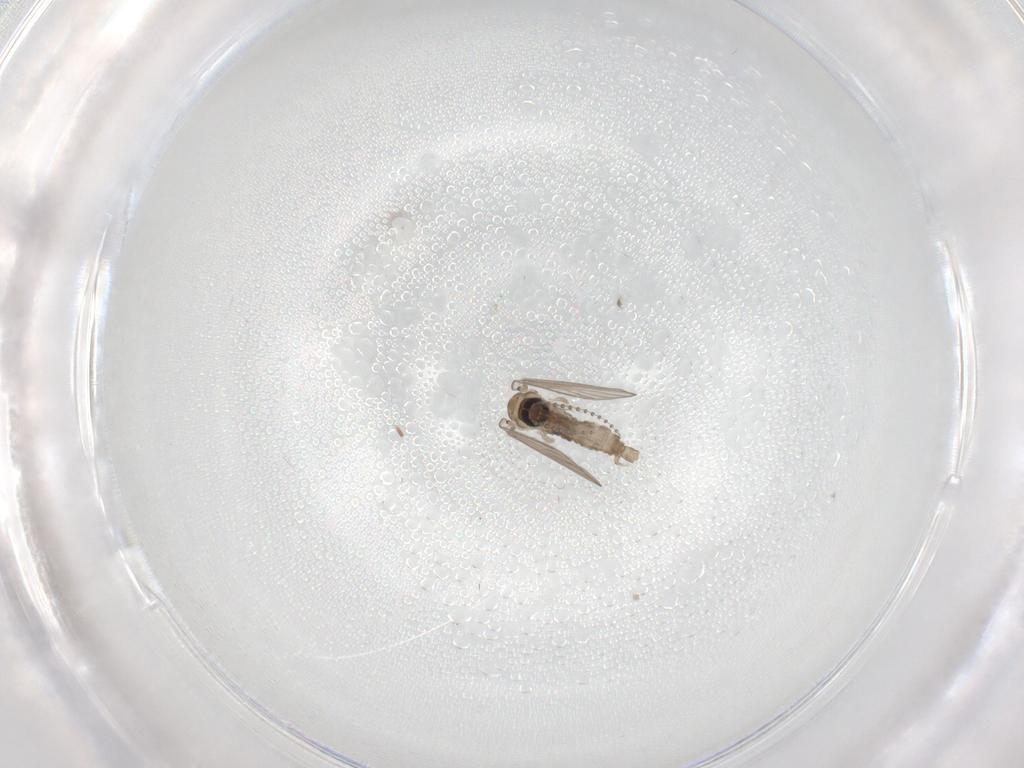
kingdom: Animalia
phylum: Arthropoda
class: Insecta
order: Diptera
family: Psychodidae
